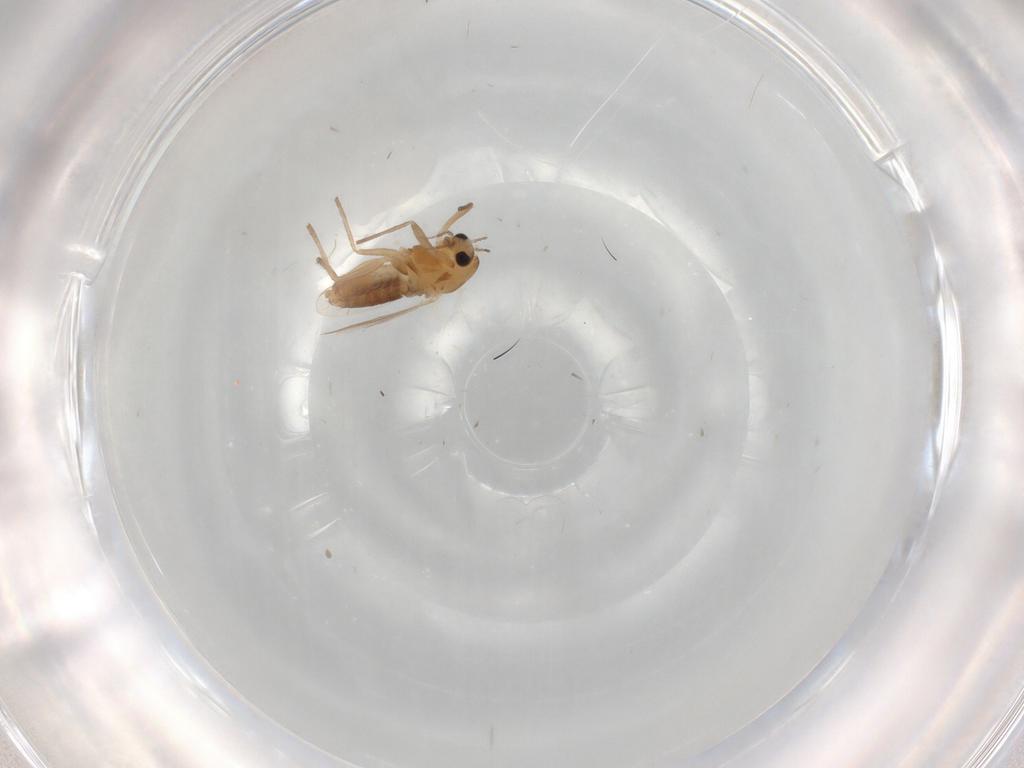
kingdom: Animalia
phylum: Arthropoda
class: Insecta
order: Diptera
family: Chironomidae
